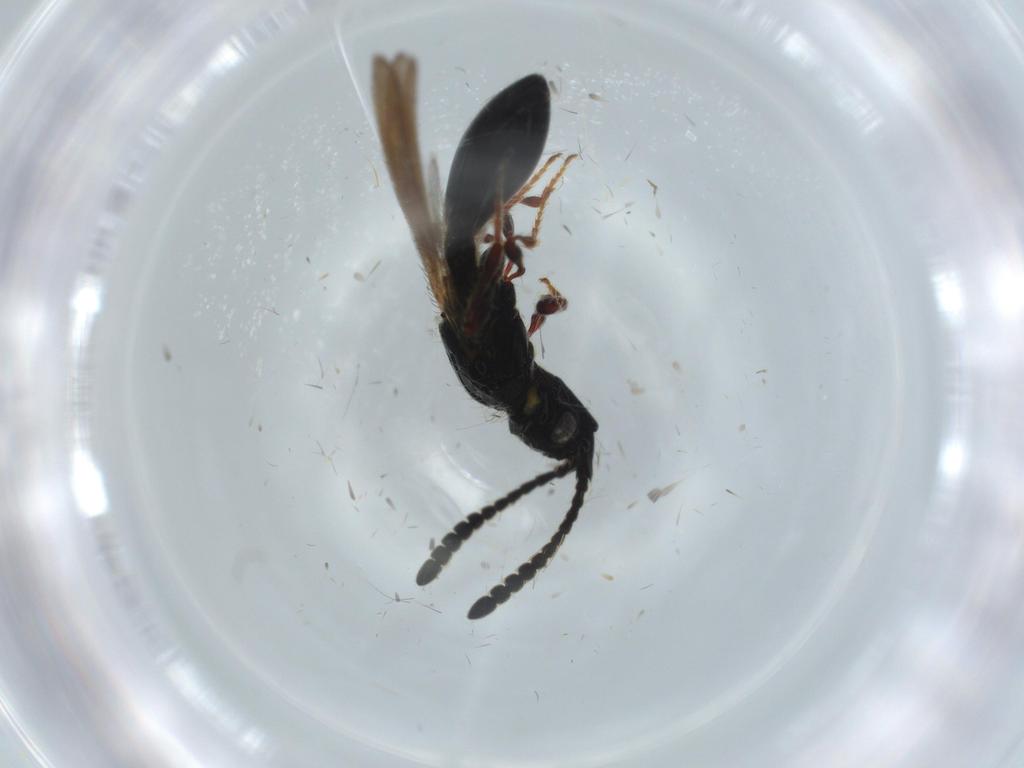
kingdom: Animalia
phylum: Arthropoda
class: Insecta
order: Hymenoptera
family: Diapriidae
